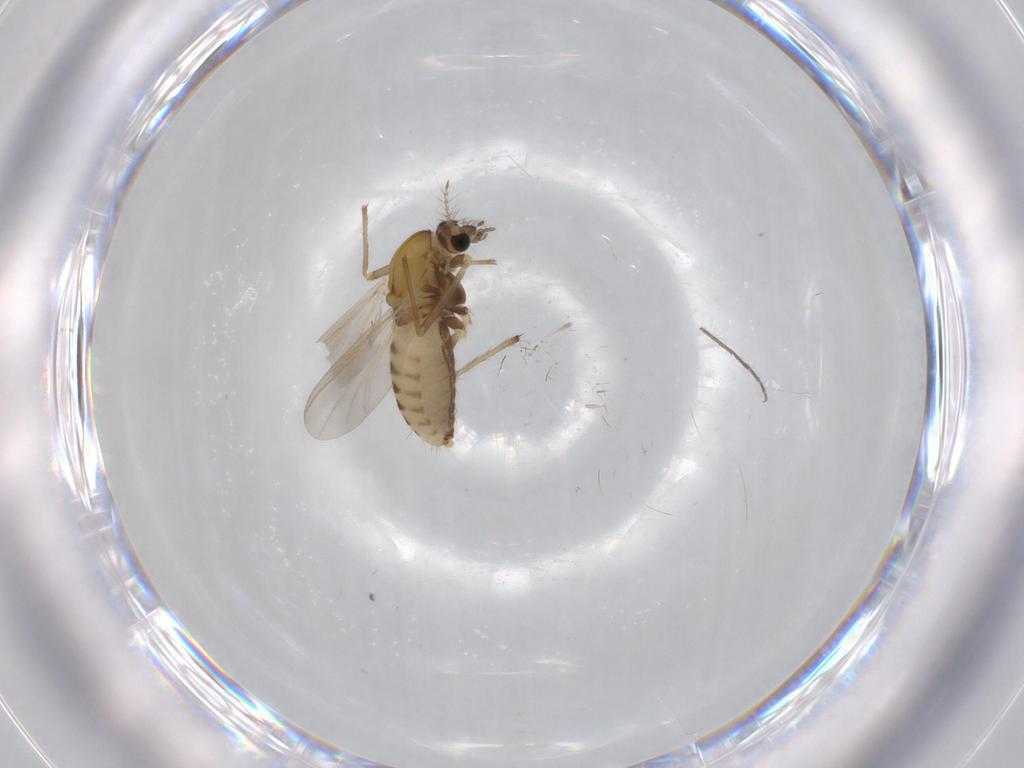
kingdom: Animalia
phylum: Arthropoda
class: Insecta
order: Diptera
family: Chironomidae
